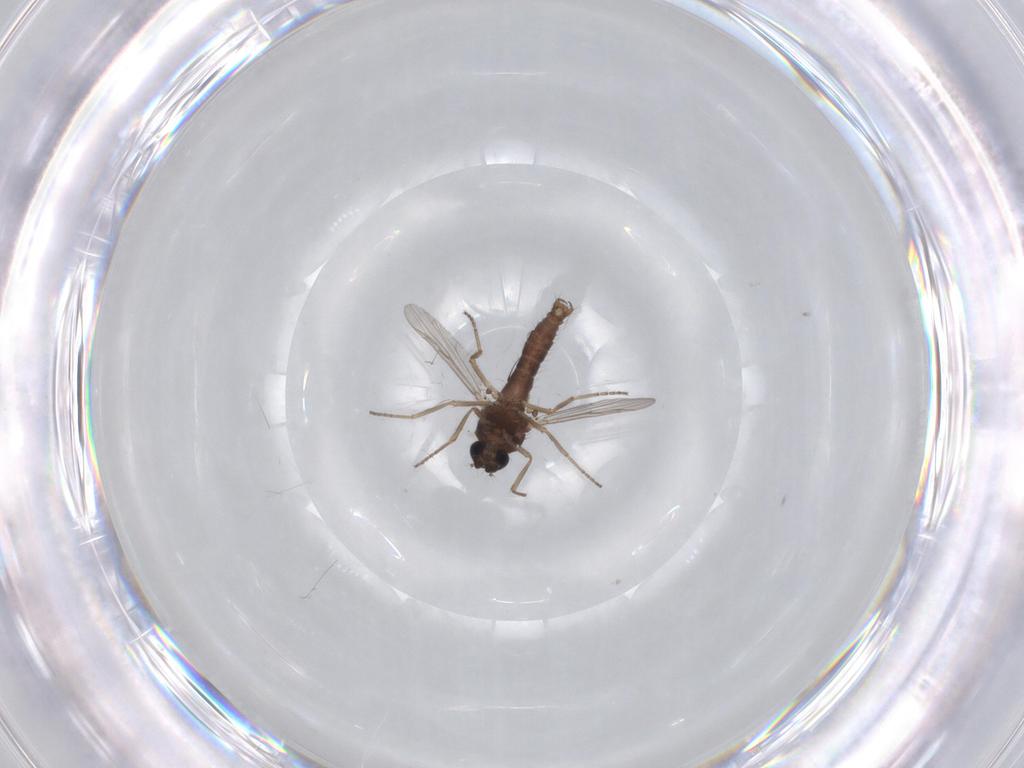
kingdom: Animalia
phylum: Arthropoda
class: Insecta
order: Diptera
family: Ceratopogonidae
